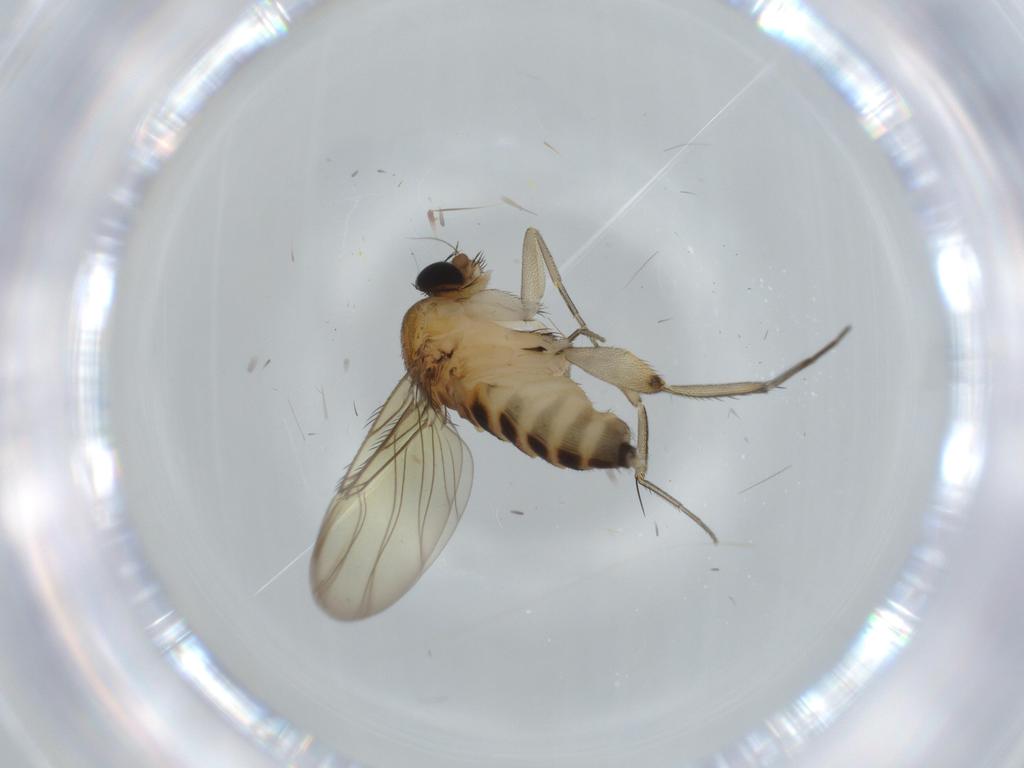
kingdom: Animalia
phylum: Arthropoda
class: Insecta
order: Diptera
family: Phoridae
